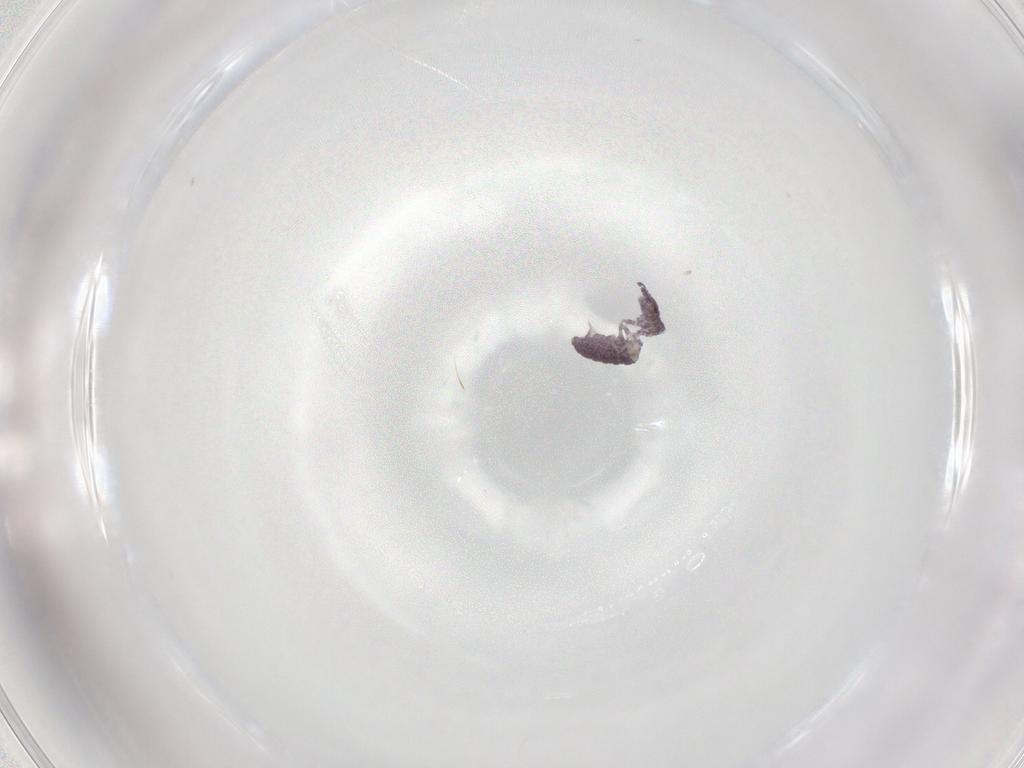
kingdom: Animalia
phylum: Arthropoda
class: Collembola
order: Poduromorpha
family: Brachystomellidae
